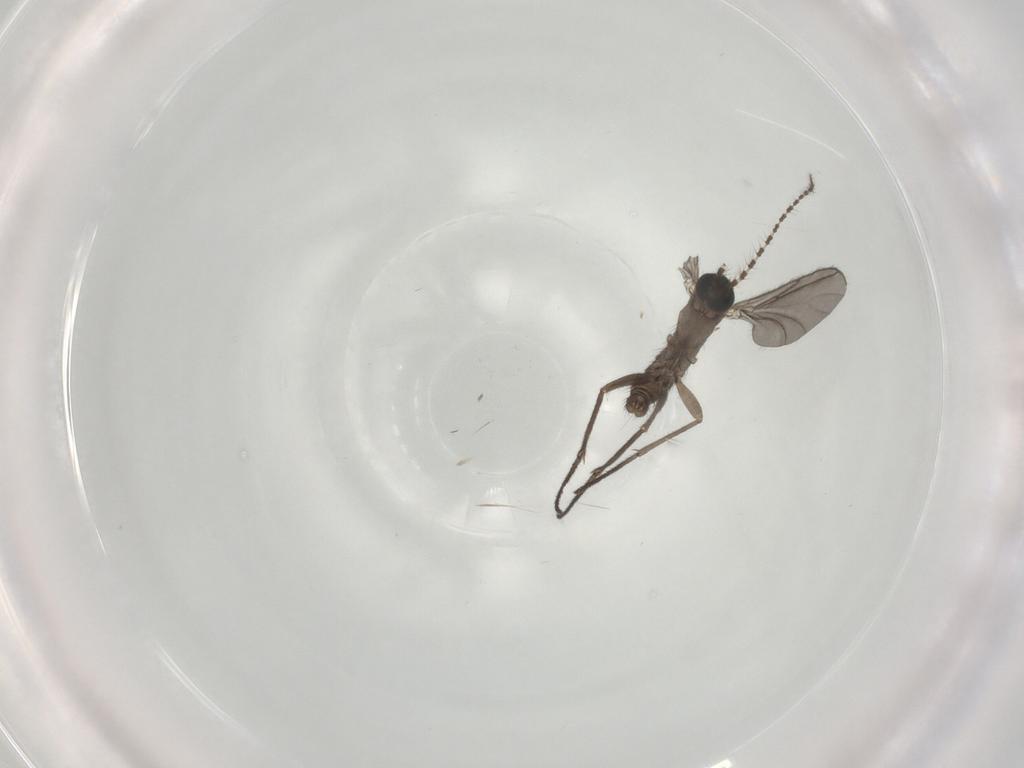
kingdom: Animalia
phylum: Arthropoda
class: Insecta
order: Diptera
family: Sciaridae
